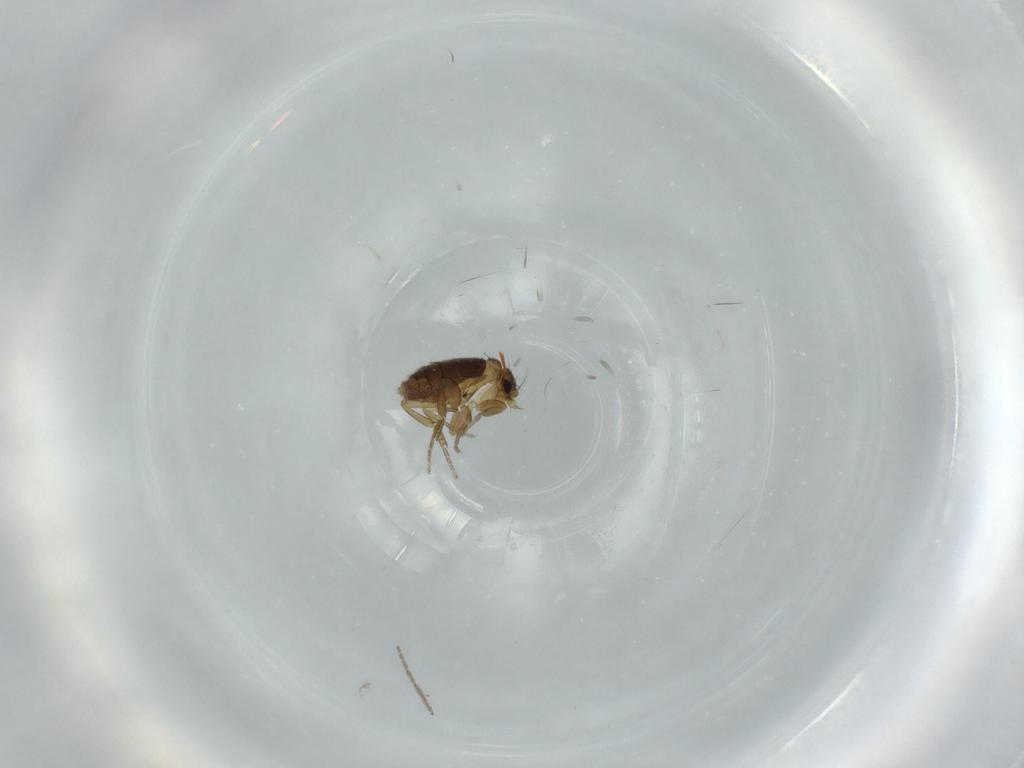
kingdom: Animalia
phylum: Arthropoda
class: Insecta
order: Diptera
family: Phoridae
